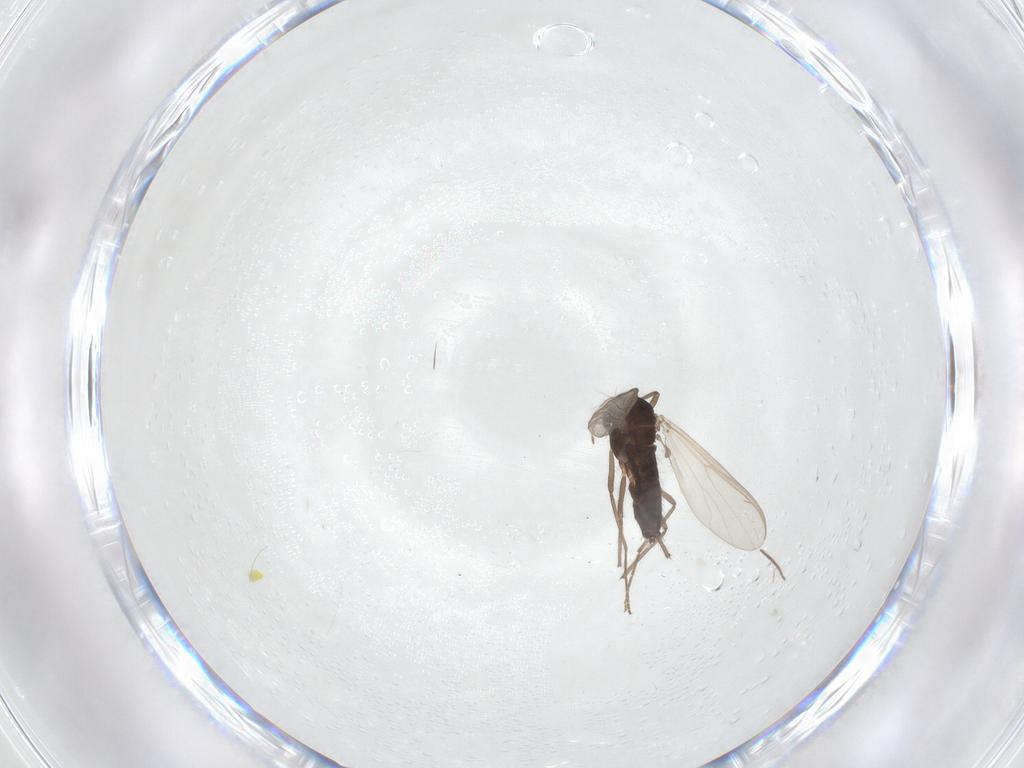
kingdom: Animalia
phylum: Arthropoda
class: Insecta
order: Diptera
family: Chironomidae
